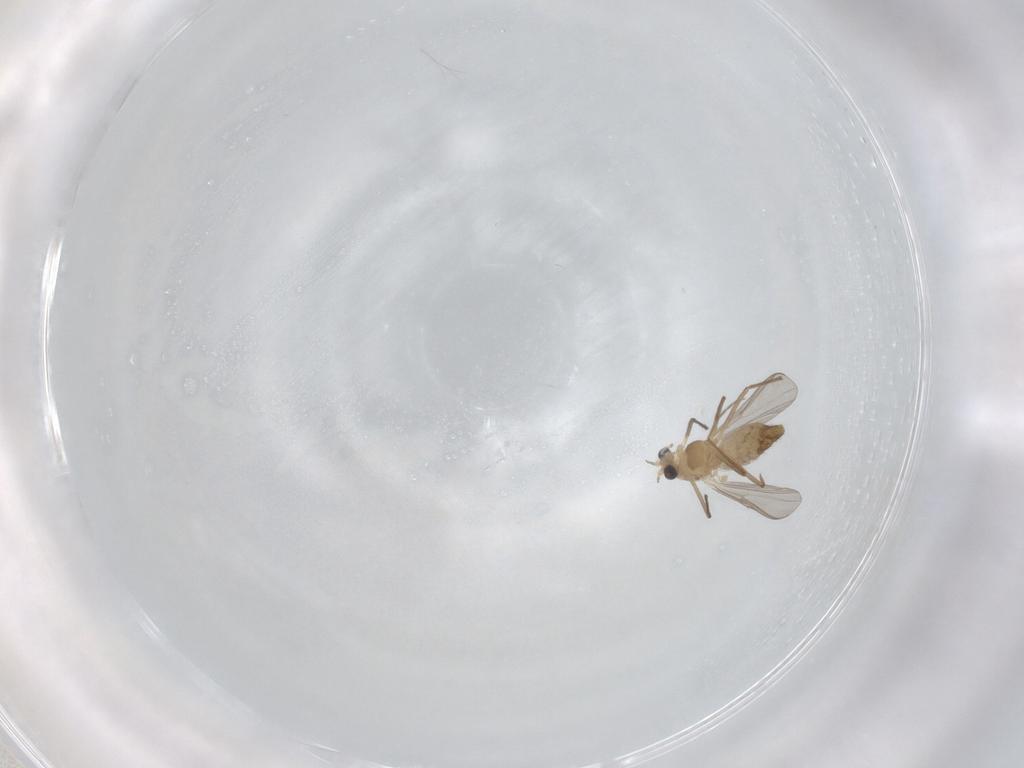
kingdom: Animalia
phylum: Arthropoda
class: Insecta
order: Diptera
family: Chironomidae
